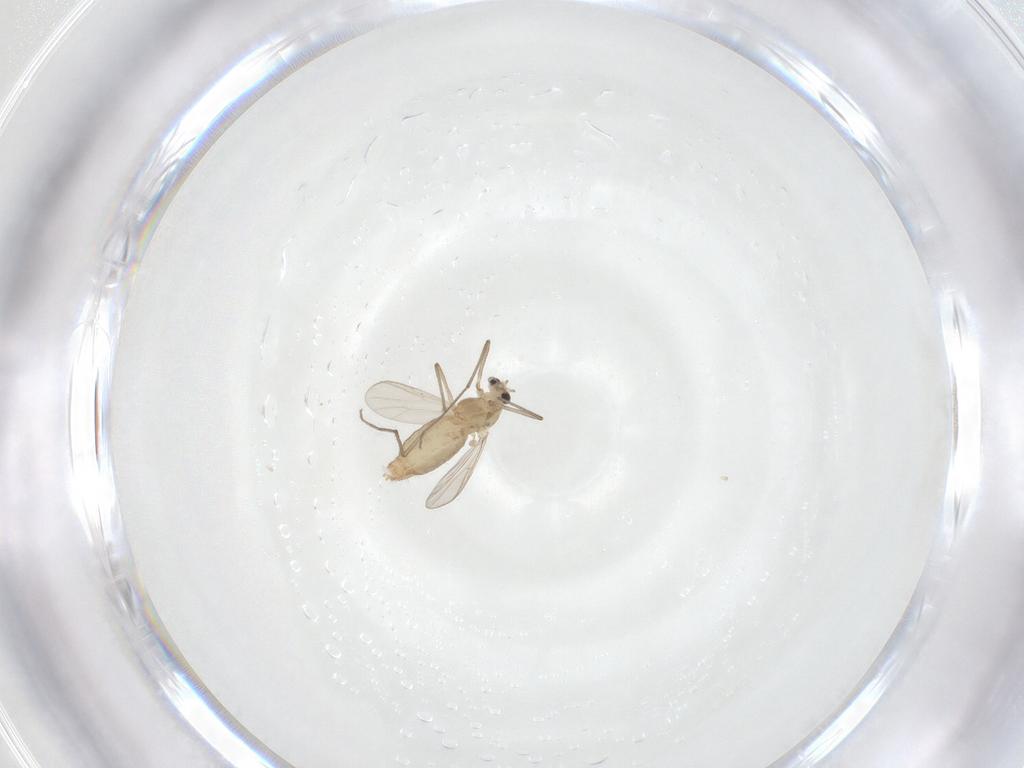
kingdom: Animalia
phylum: Arthropoda
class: Insecta
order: Diptera
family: Chironomidae
